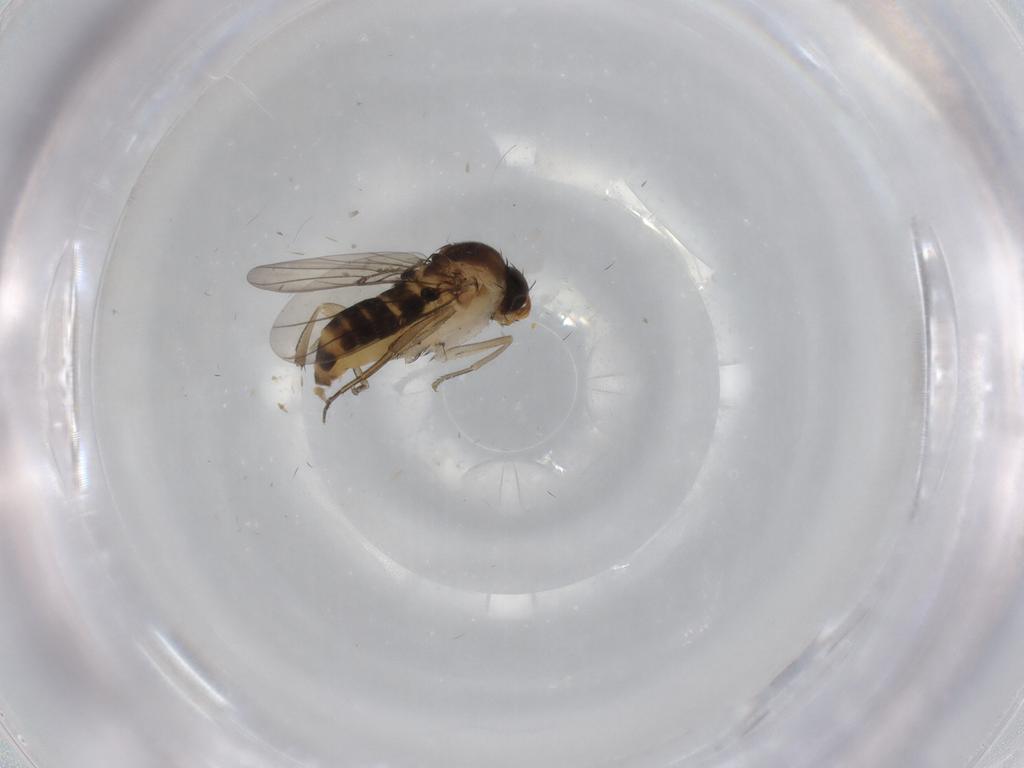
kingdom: Animalia
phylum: Arthropoda
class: Insecta
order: Diptera
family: Phoridae
